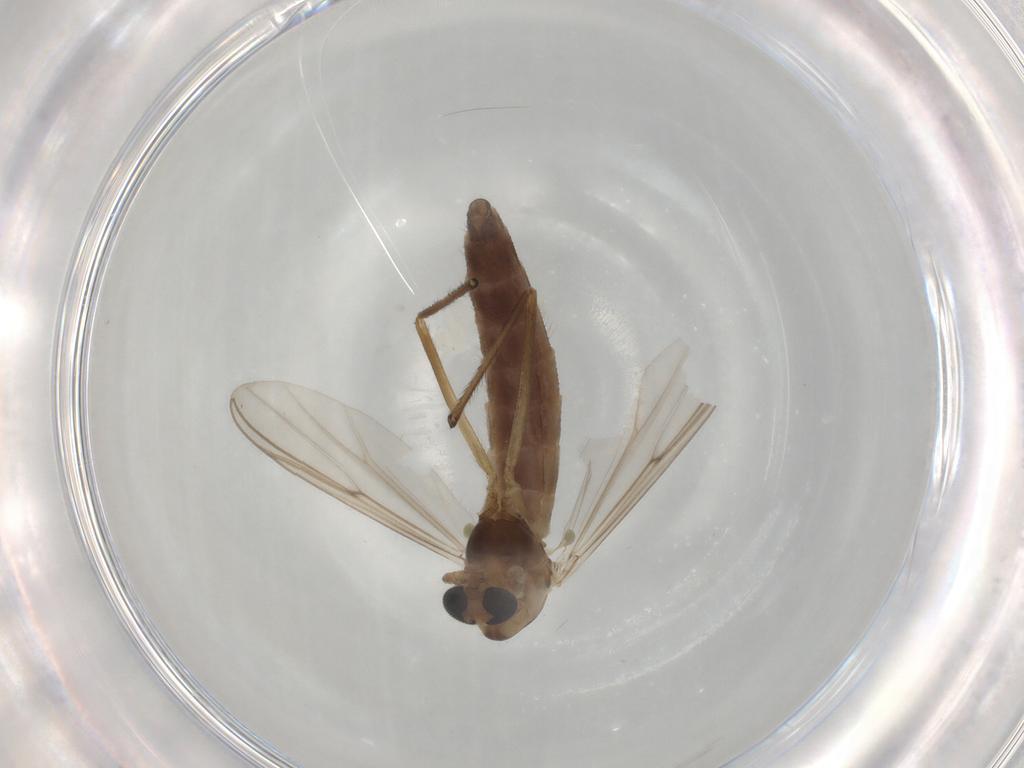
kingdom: Animalia
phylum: Arthropoda
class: Insecta
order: Diptera
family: Chironomidae
